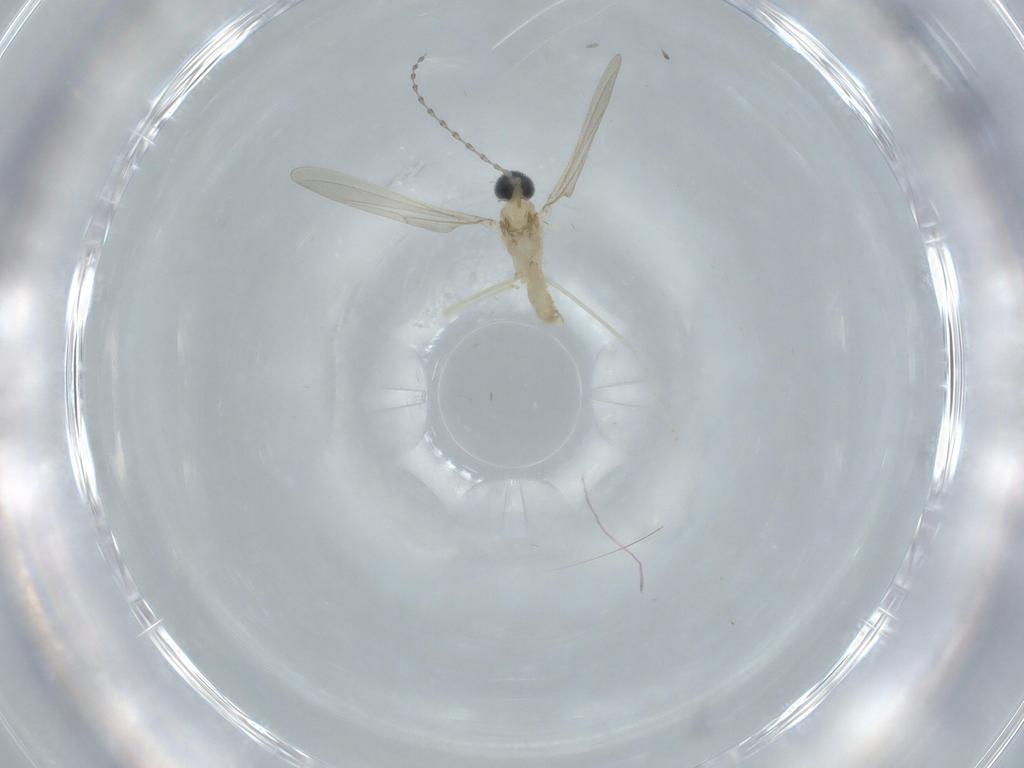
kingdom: Animalia
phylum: Arthropoda
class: Insecta
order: Diptera
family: Cecidomyiidae
